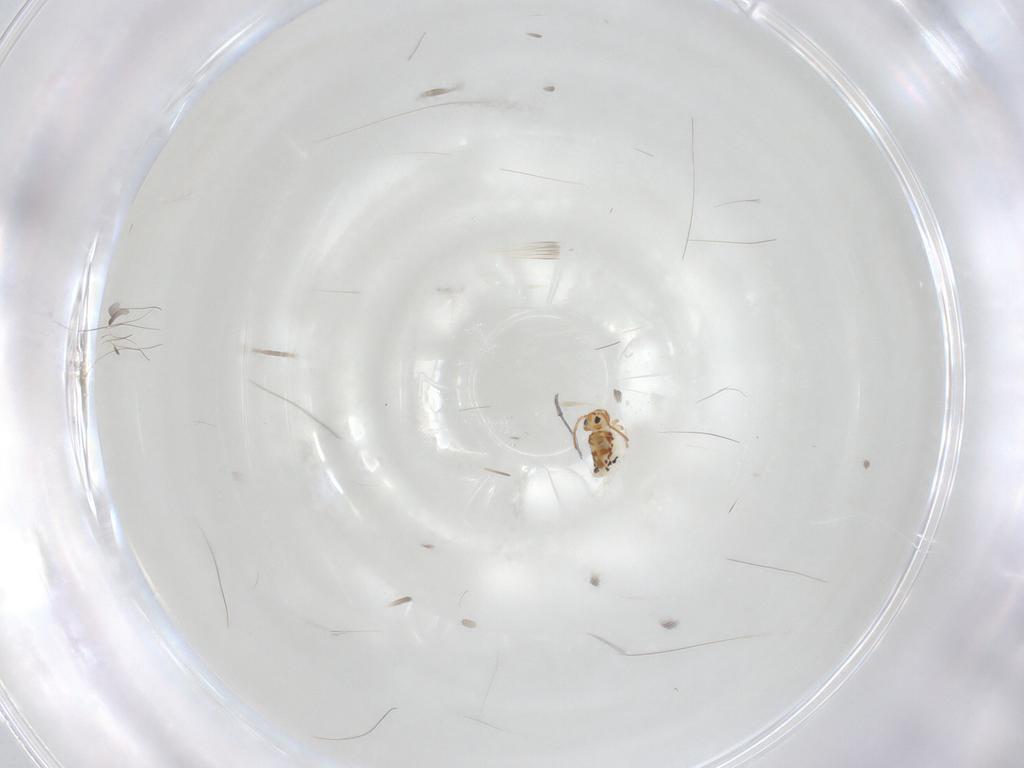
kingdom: Animalia
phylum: Arthropoda
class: Collembola
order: Symphypleona
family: Bourletiellidae
